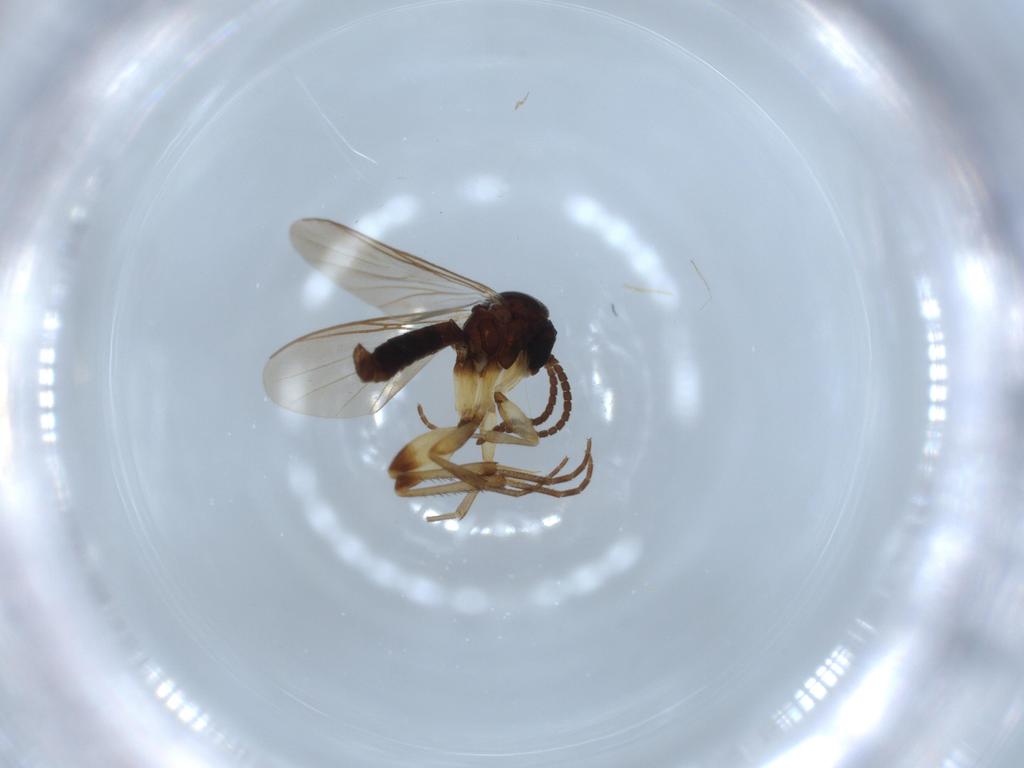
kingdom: Animalia
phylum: Arthropoda
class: Insecta
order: Diptera
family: Mycetophilidae
